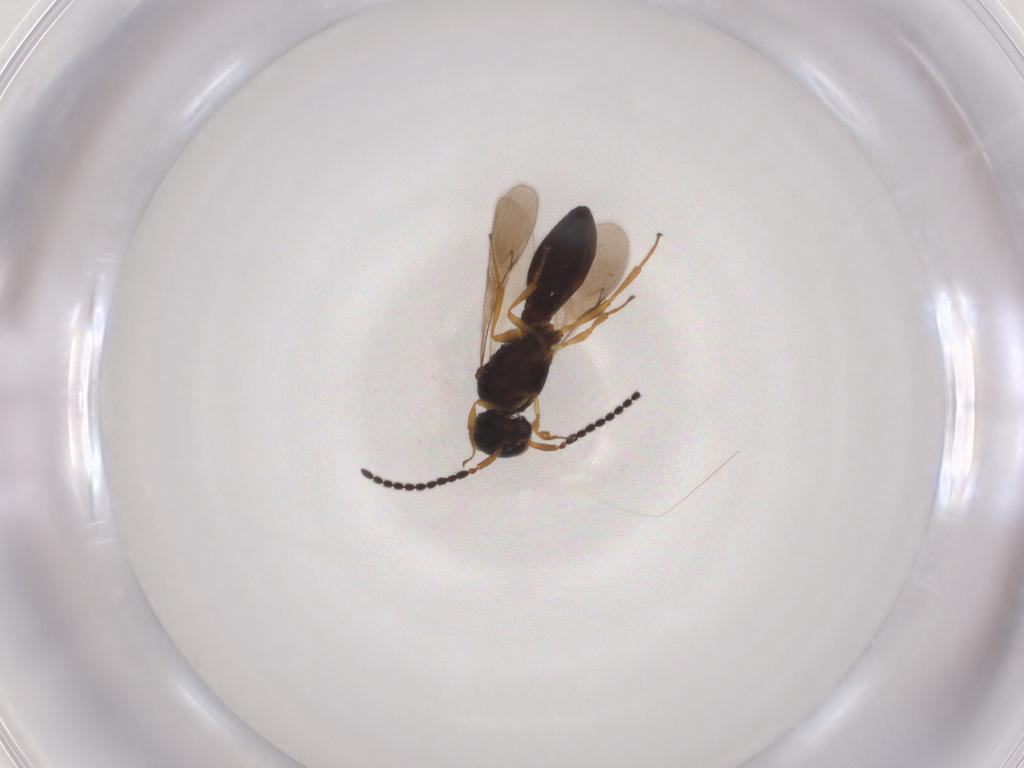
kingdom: Animalia
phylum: Arthropoda
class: Insecta
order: Hymenoptera
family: Scelionidae
